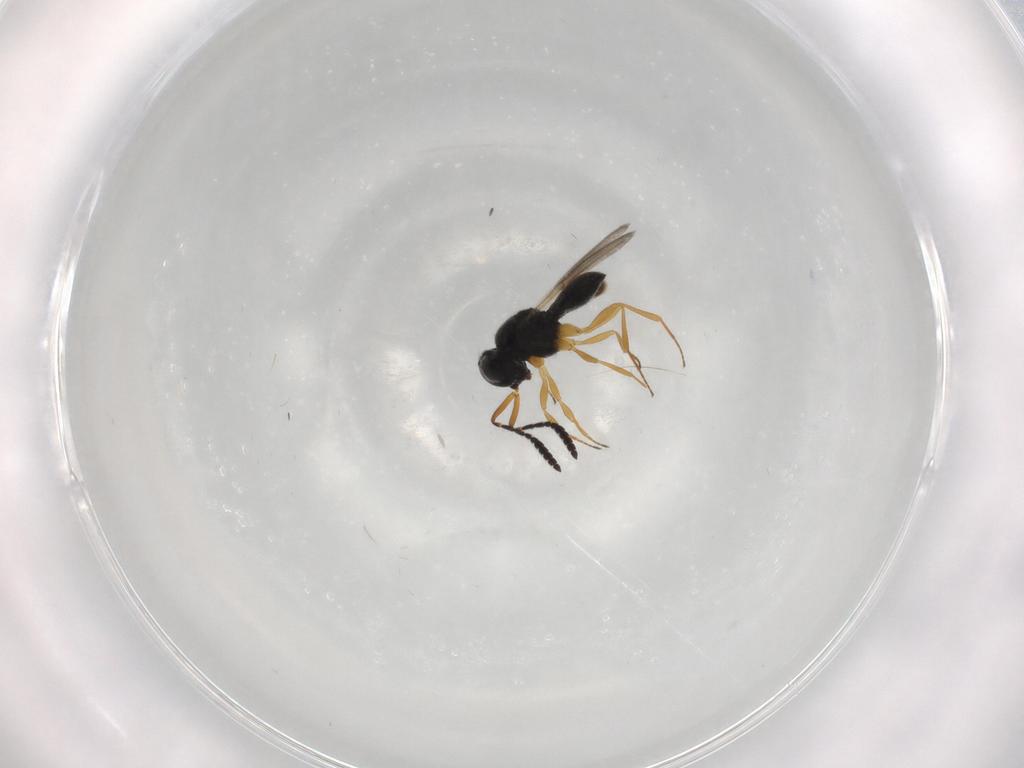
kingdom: Animalia
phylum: Arthropoda
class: Insecta
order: Hymenoptera
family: Scelionidae
